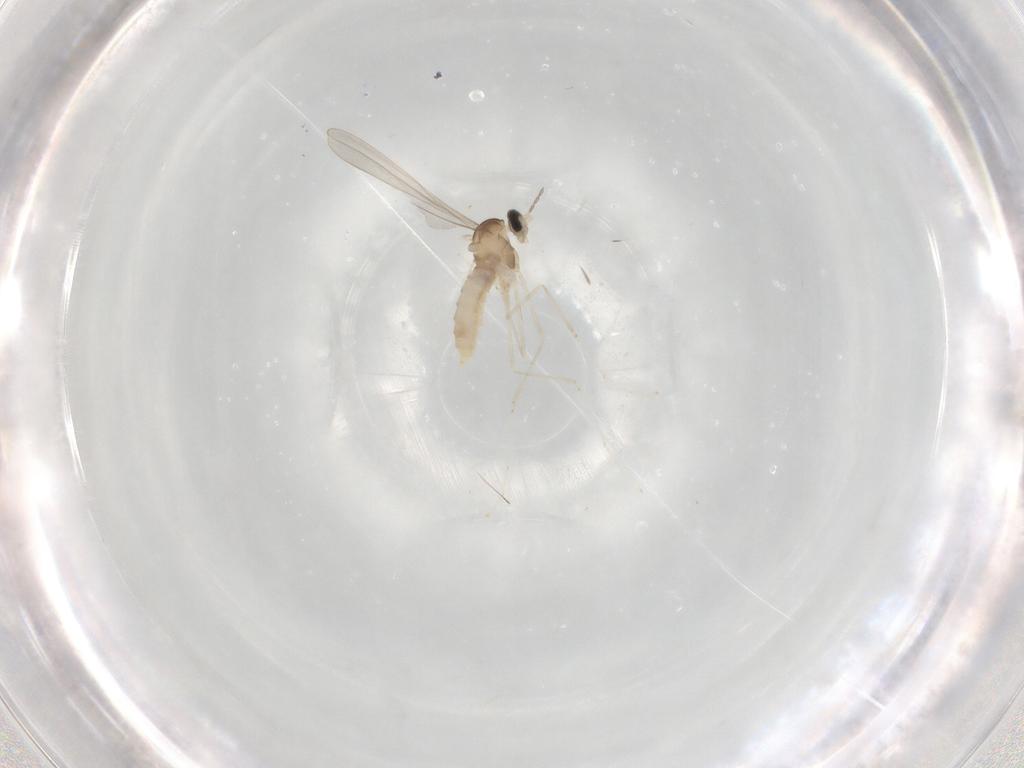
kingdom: Animalia
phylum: Arthropoda
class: Insecta
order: Diptera
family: Cecidomyiidae
